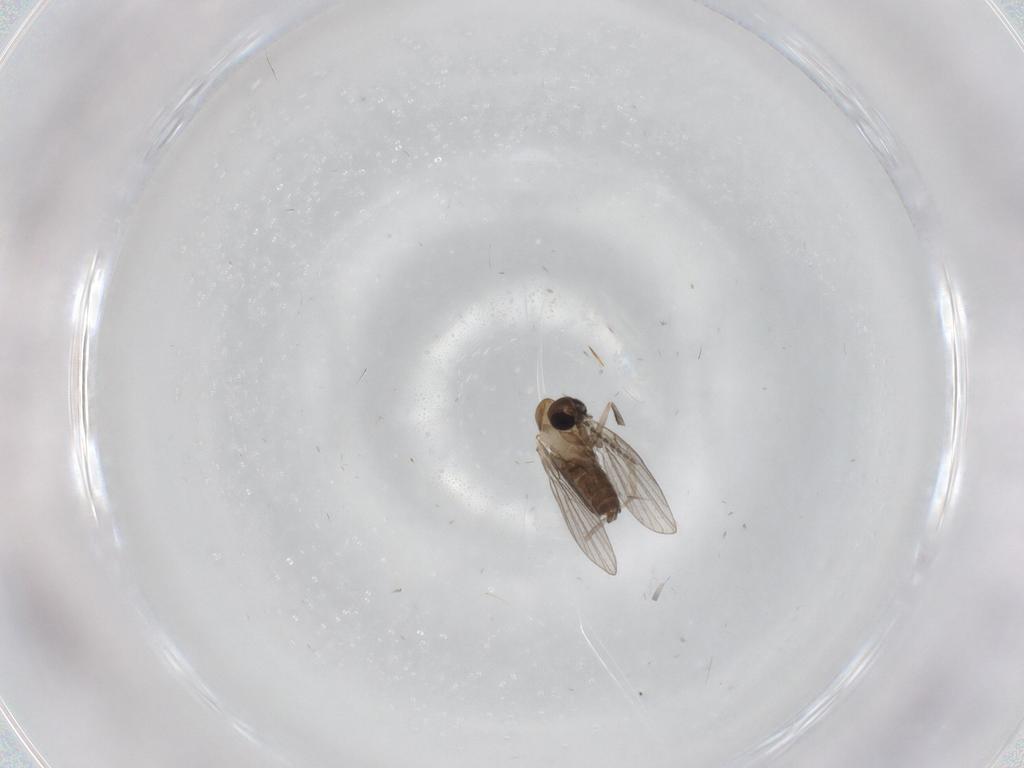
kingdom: Animalia
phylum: Arthropoda
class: Insecta
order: Diptera
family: Psychodidae
